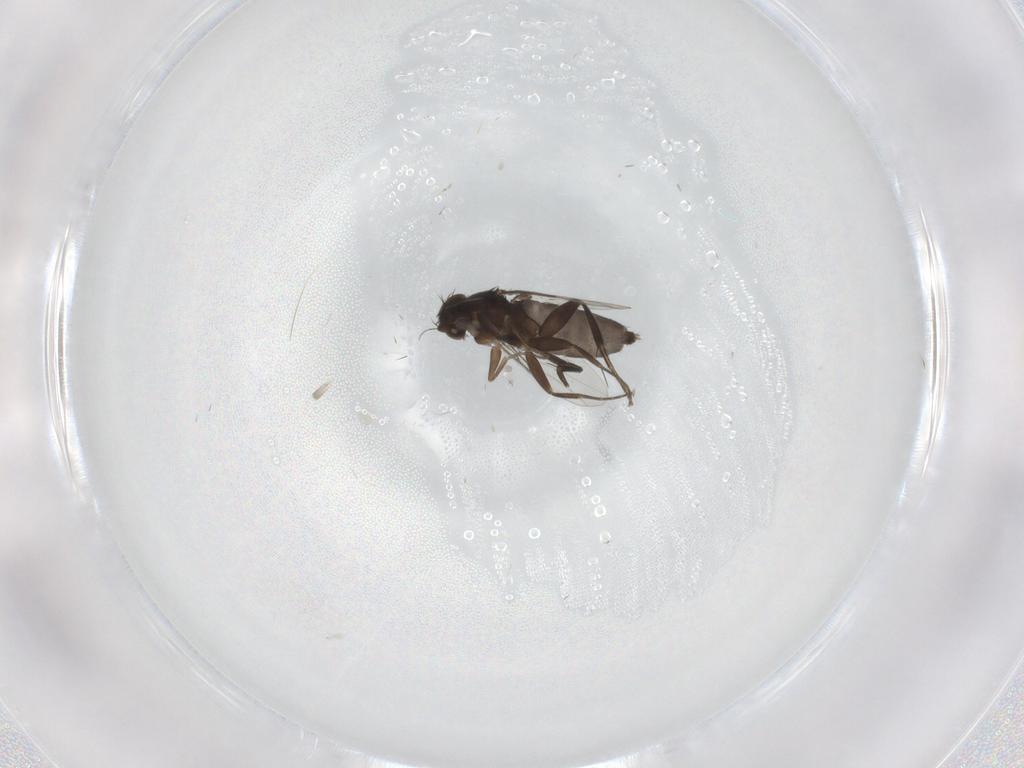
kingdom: Animalia
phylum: Arthropoda
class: Insecta
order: Diptera
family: Phoridae
